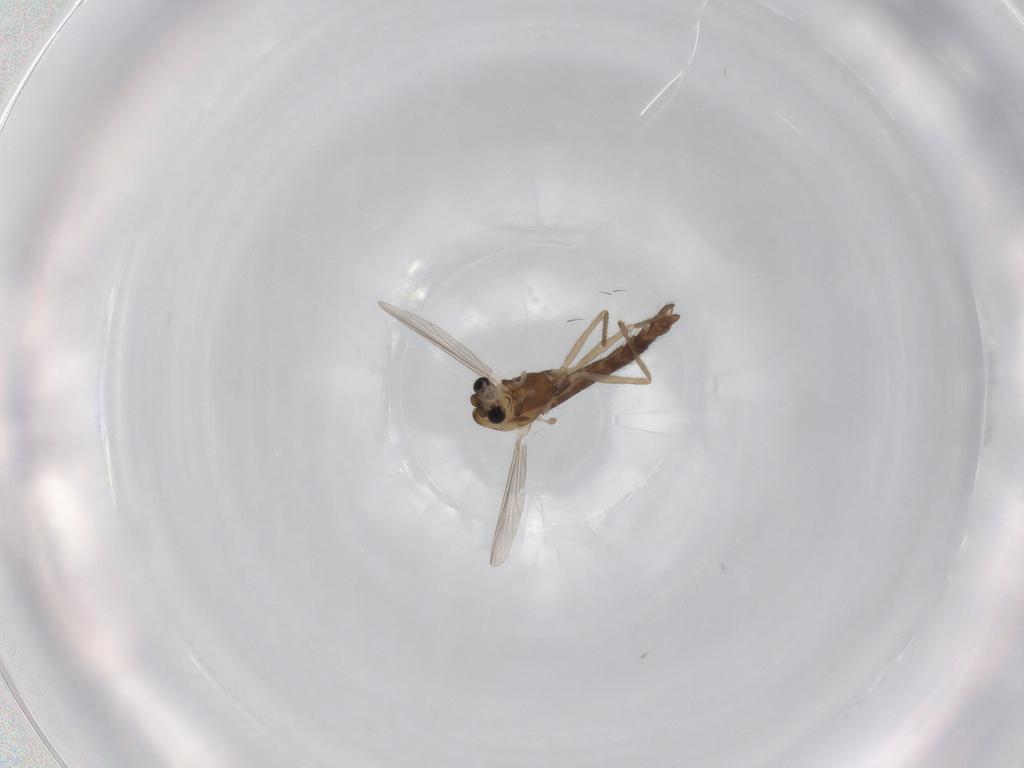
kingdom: Animalia
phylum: Arthropoda
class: Insecta
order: Diptera
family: Chironomidae
